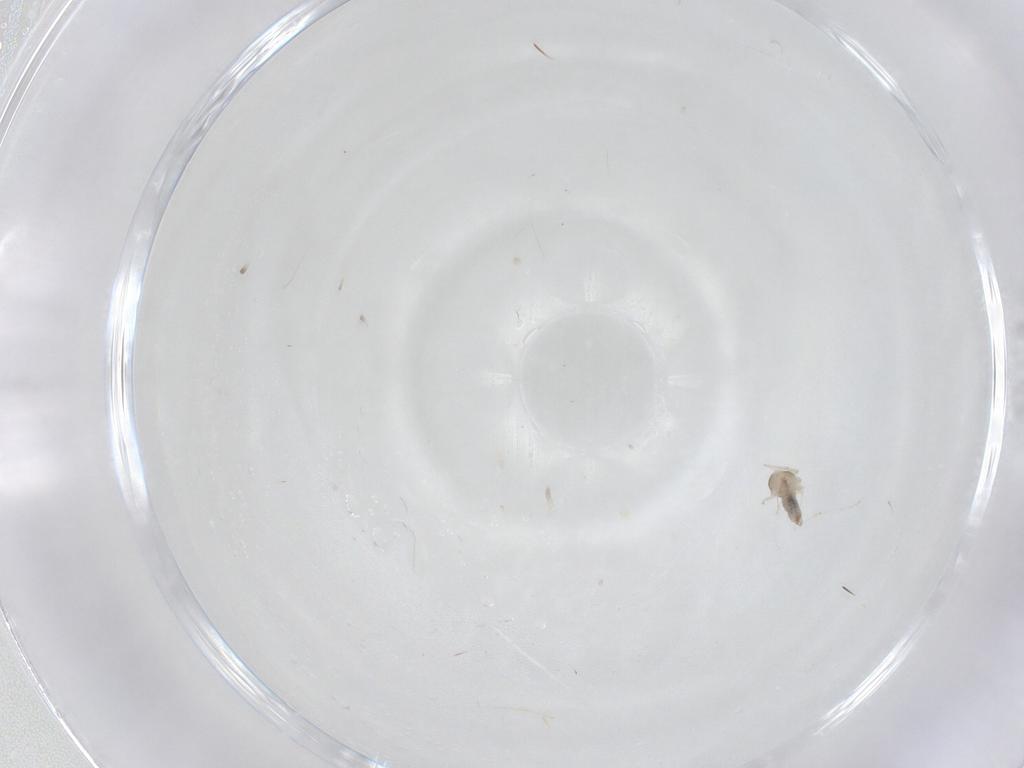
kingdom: Animalia
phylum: Arthropoda
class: Insecta
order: Diptera
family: Cecidomyiidae
